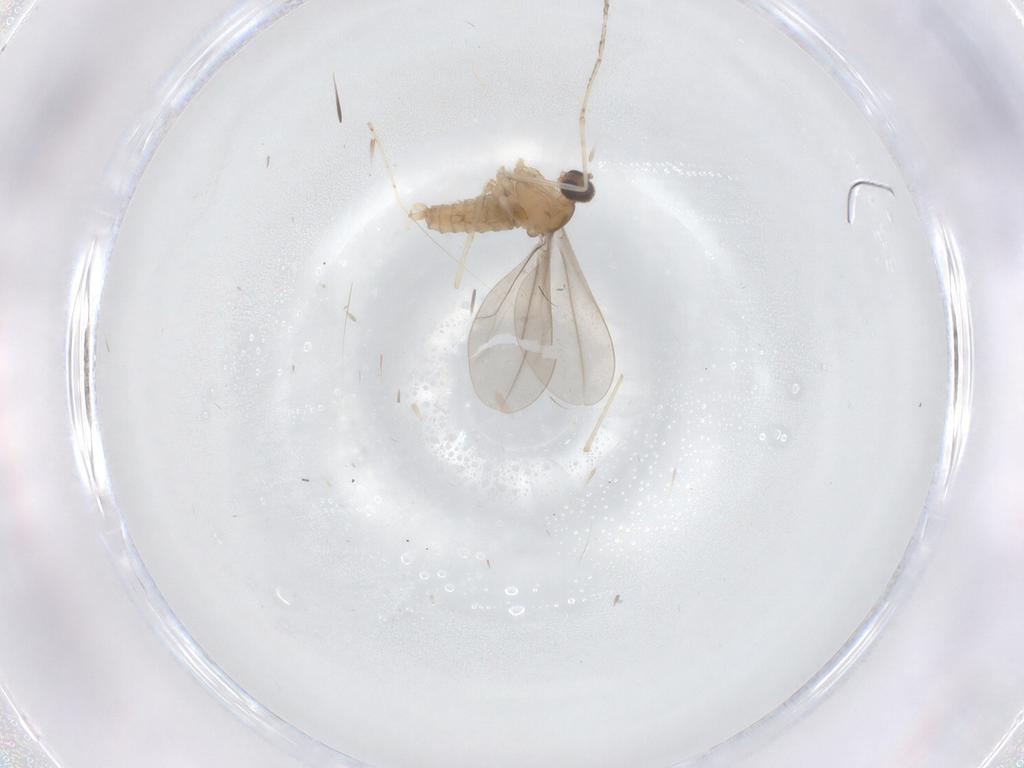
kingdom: Animalia
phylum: Arthropoda
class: Insecta
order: Diptera
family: Cecidomyiidae
